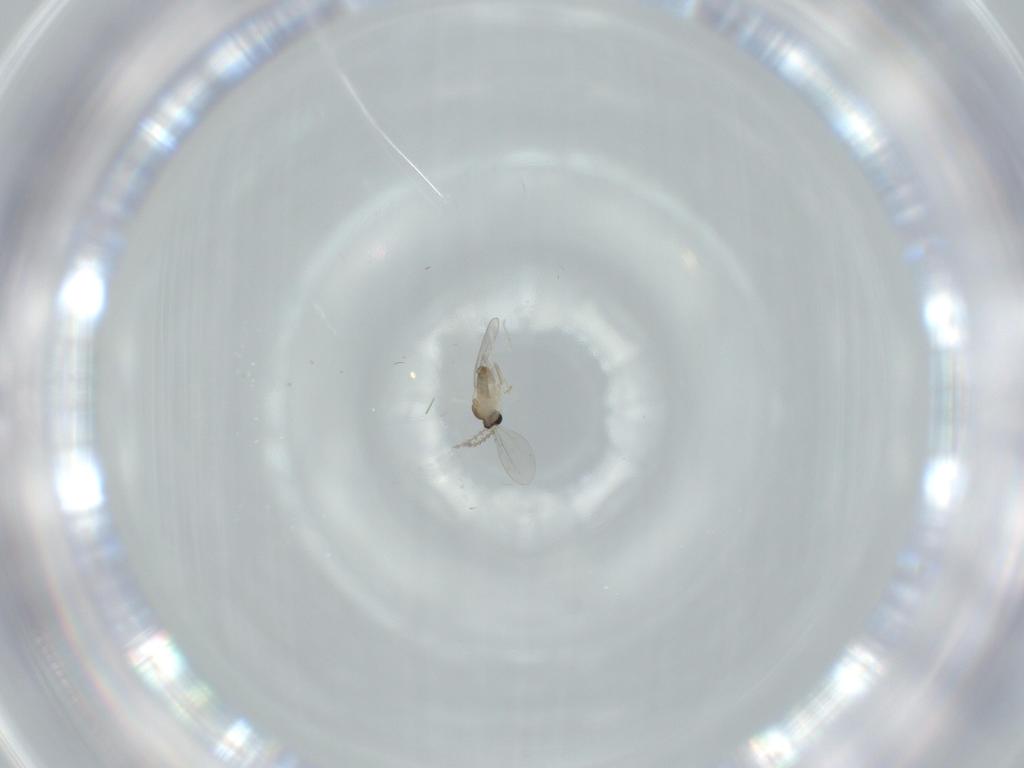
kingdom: Animalia
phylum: Arthropoda
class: Insecta
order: Diptera
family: Cecidomyiidae
